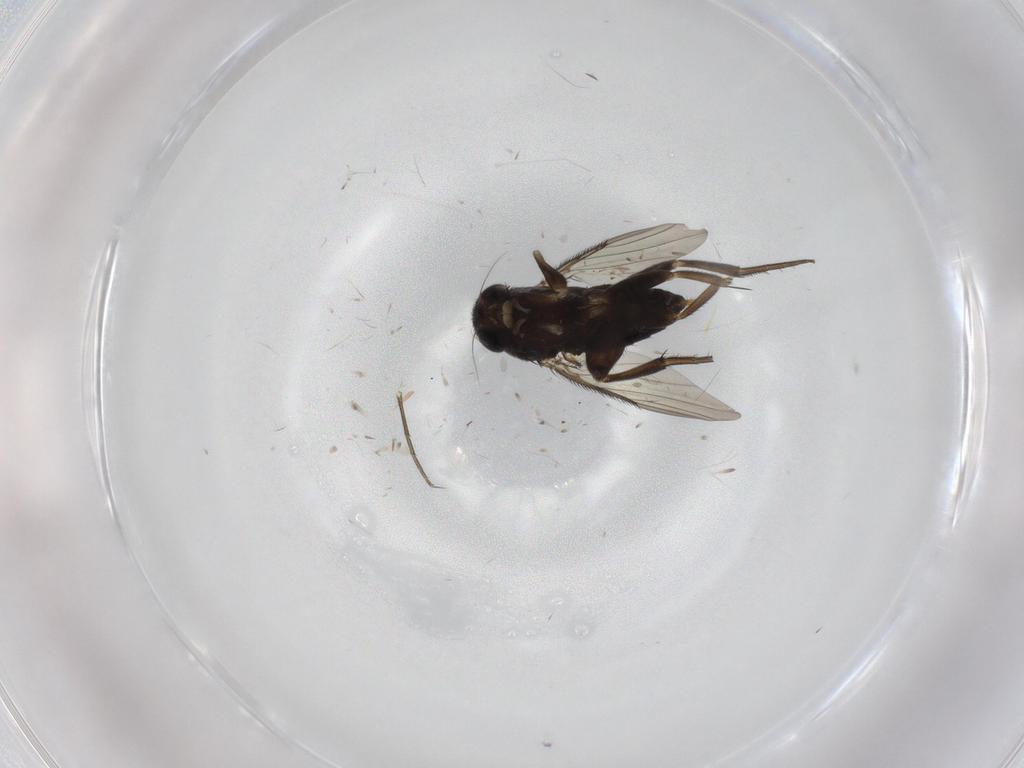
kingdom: Animalia
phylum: Arthropoda
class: Insecta
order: Diptera
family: Phoridae
